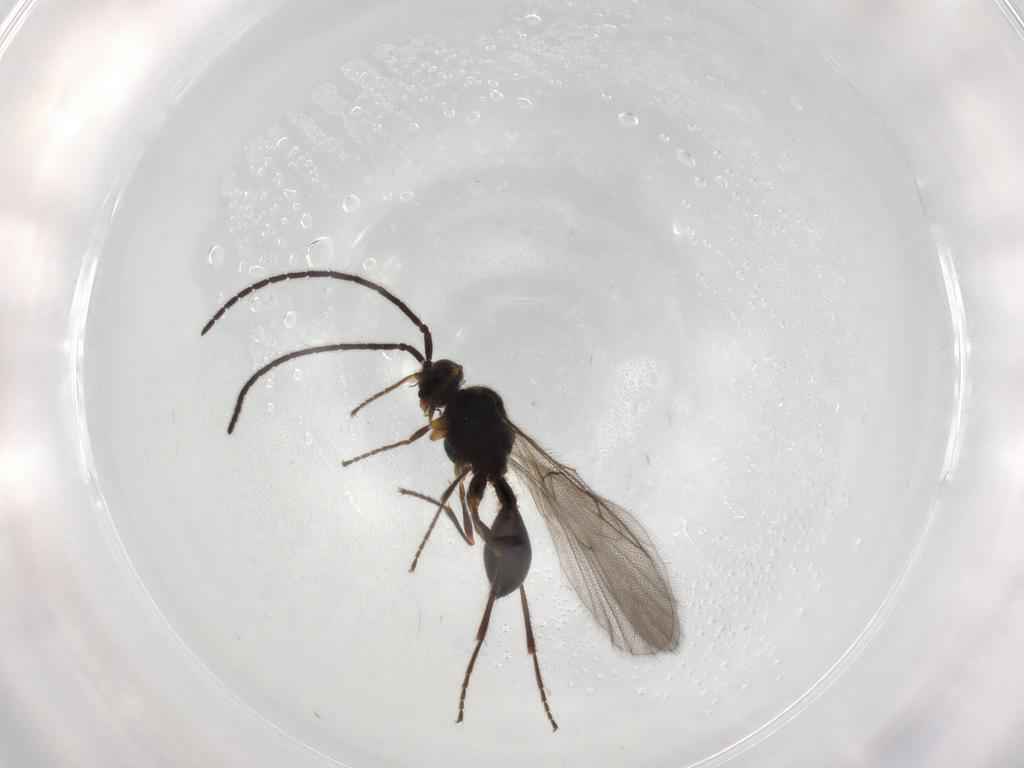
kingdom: Animalia
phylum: Arthropoda
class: Insecta
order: Hymenoptera
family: Diapriidae
